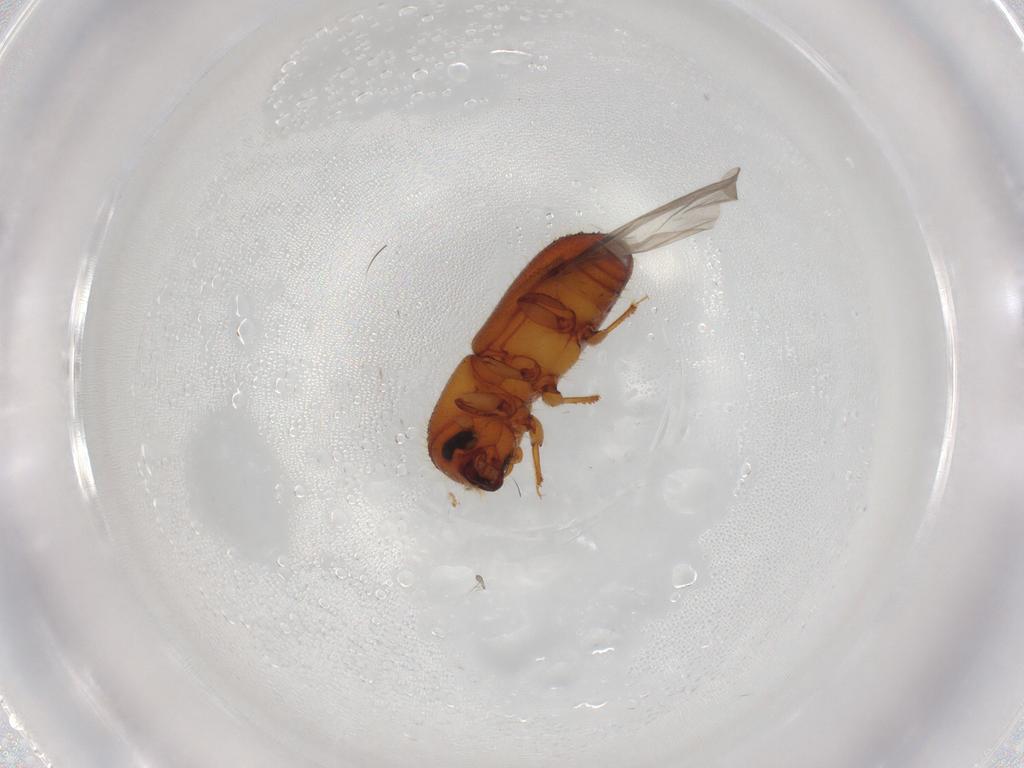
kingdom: Animalia
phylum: Arthropoda
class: Insecta
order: Coleoptera
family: Curculionidae
